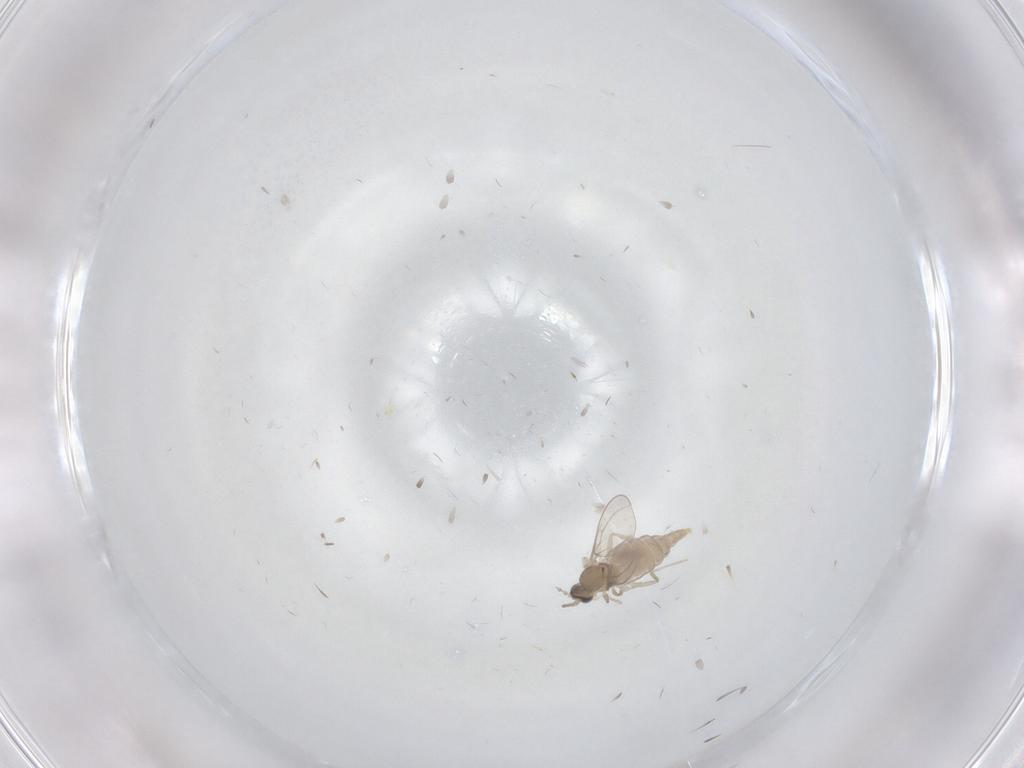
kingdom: Animalia
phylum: Arthropoda
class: Insecta
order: Diptera
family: Cecidomyiidae
